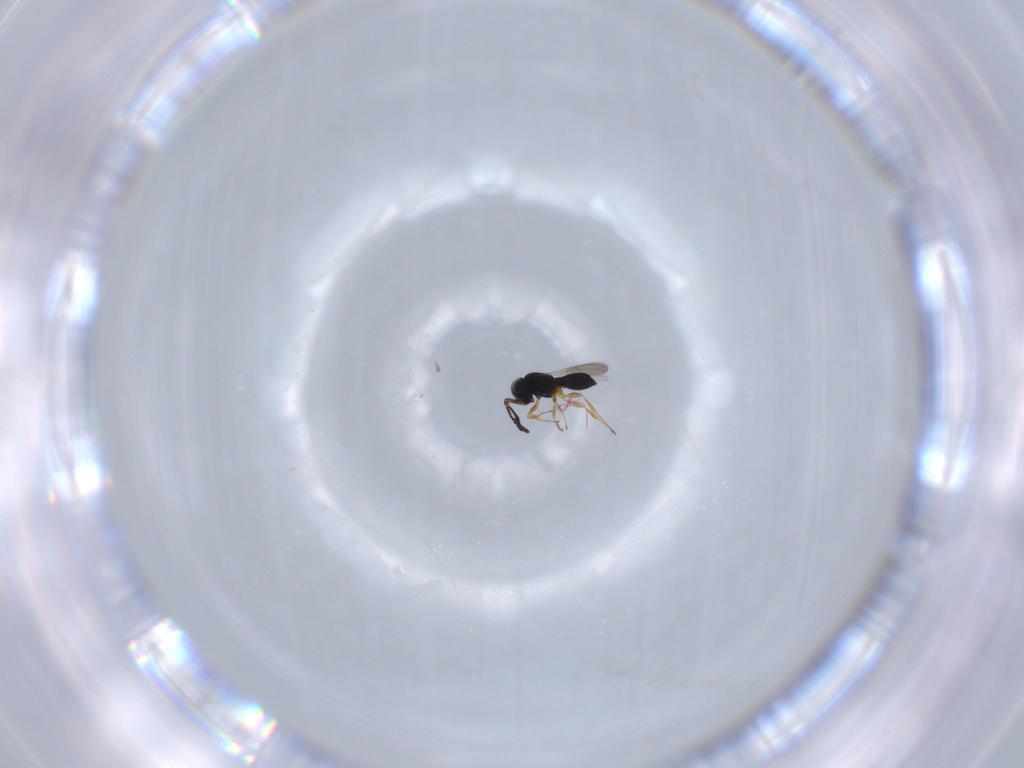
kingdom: Animalia
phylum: Arthropoda
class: Insecta
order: Hymenoptera
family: Scelionidae
